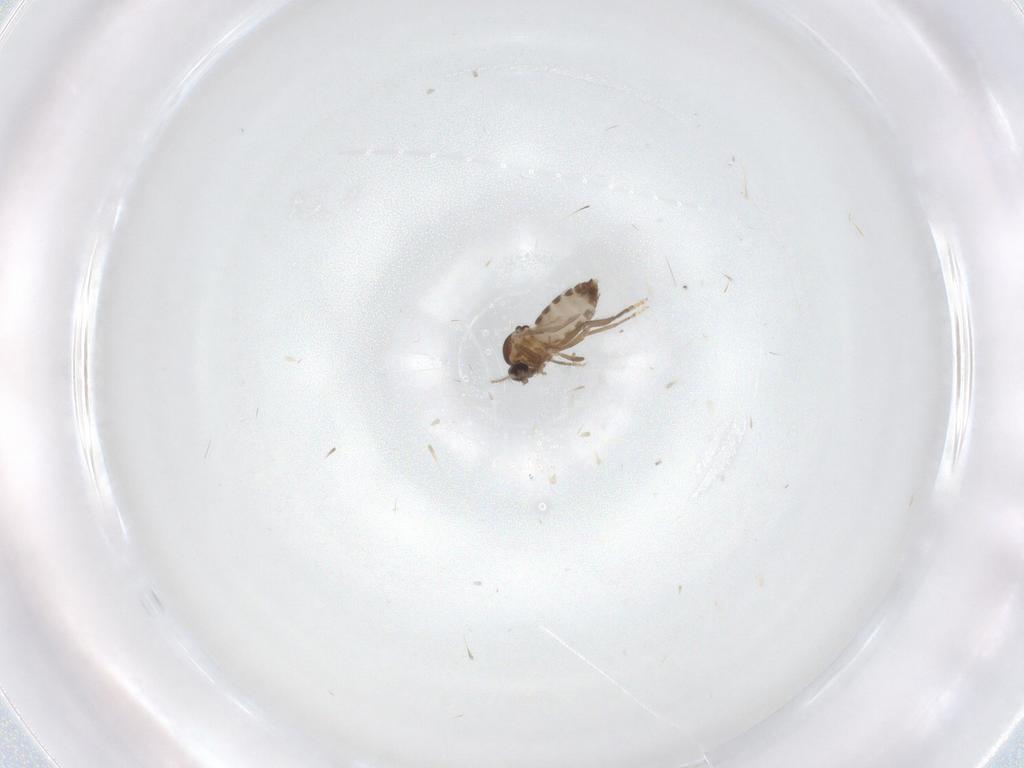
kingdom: Animalia
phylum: Arthropoda
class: Insecta
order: Diptera
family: Ceratopogonidae
